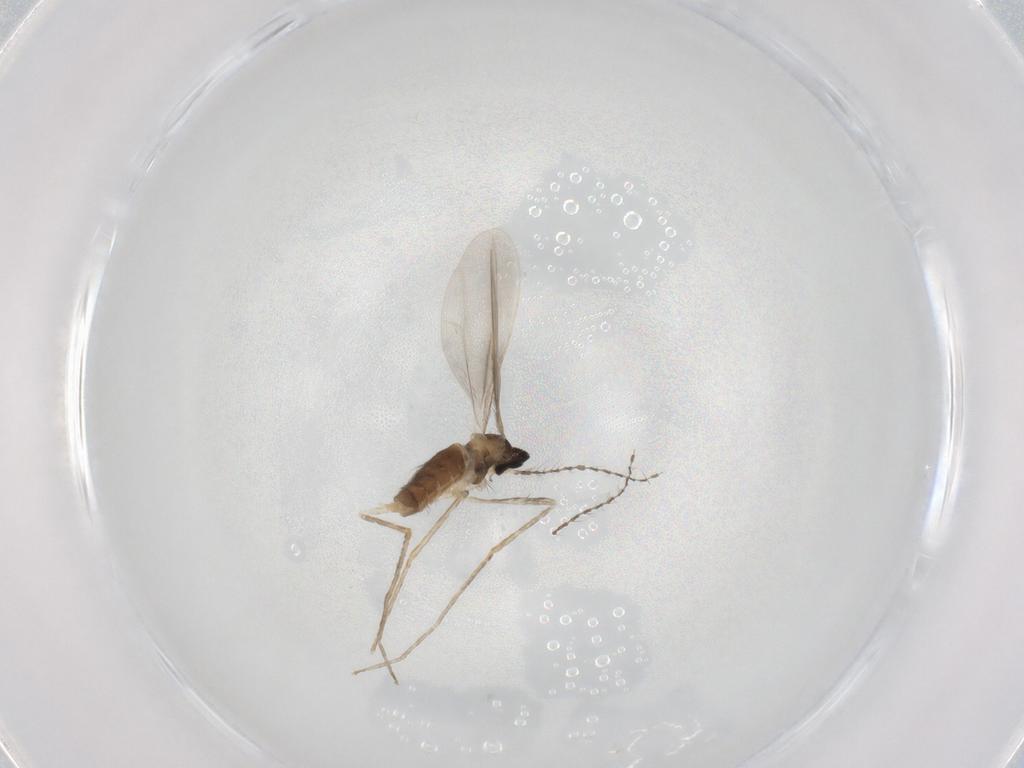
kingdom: Animalia
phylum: Arthropoda
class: Insecta
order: Diptera
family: Cecidomyiidae
